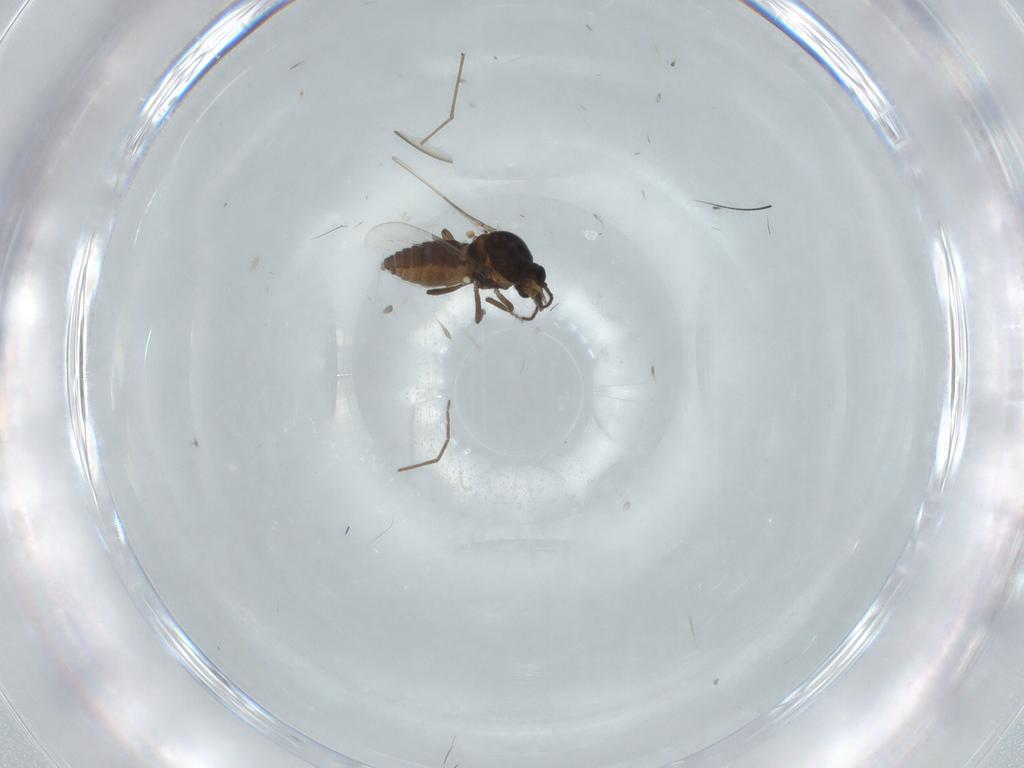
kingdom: Animalia
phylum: Arthropoda
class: Insecta
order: Diptera
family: Ceratopogonidae
